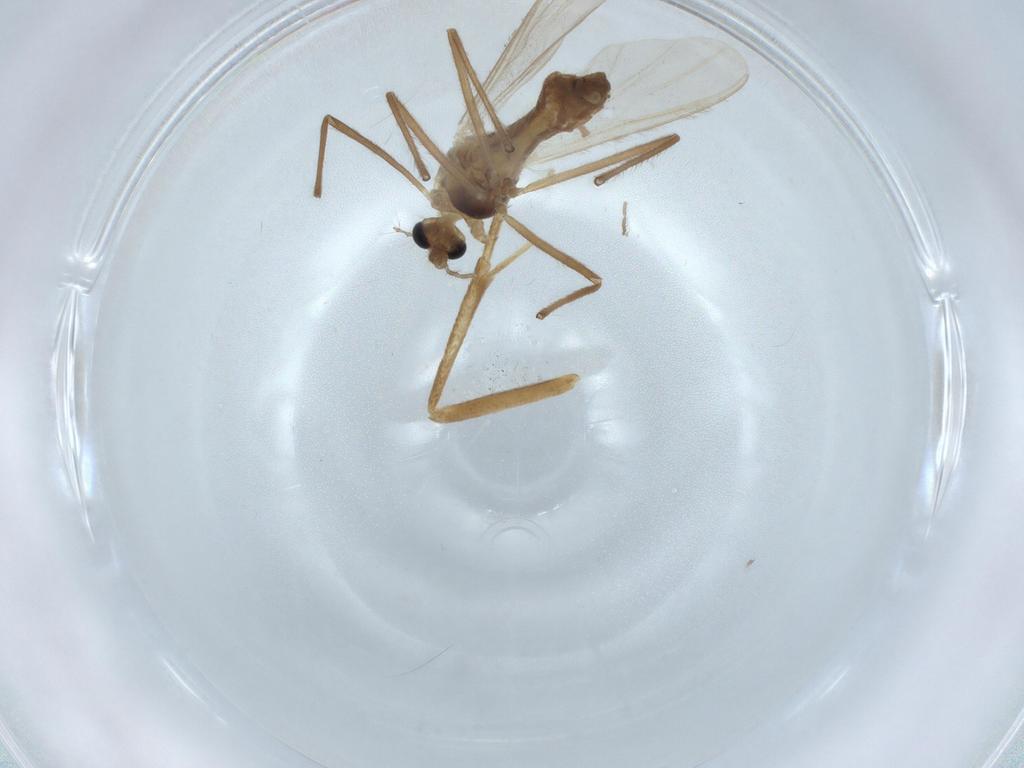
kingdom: Animalia
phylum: Arthropoda
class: Insecta
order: Diptera
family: Chironomidae
